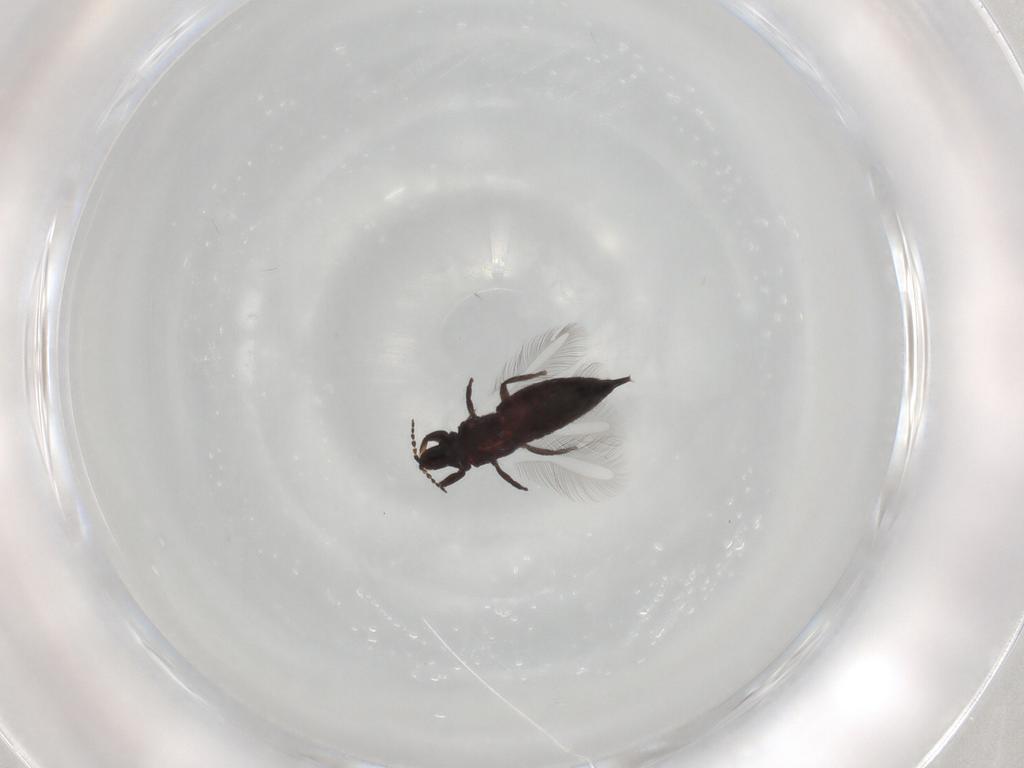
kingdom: Animalia
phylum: Arthropoda
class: Insecta
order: Thysanoptera
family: Phlaeothripidae
